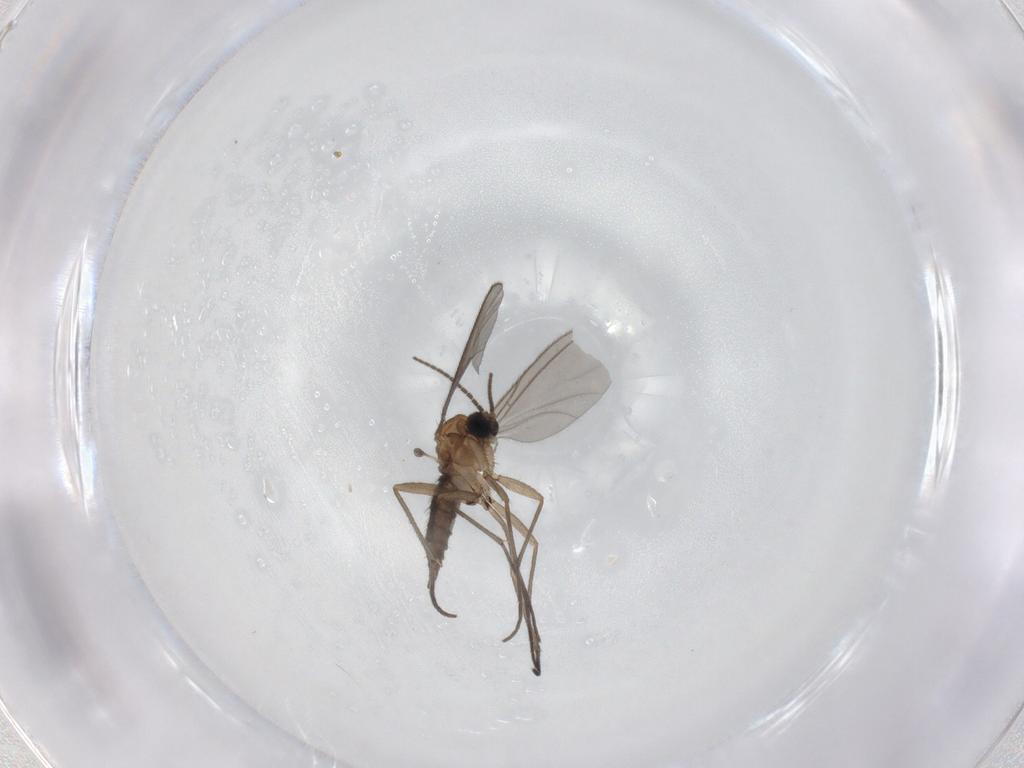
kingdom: Animalia
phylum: Arthropoda
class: Insecta
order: Diptera
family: Sciaridae
